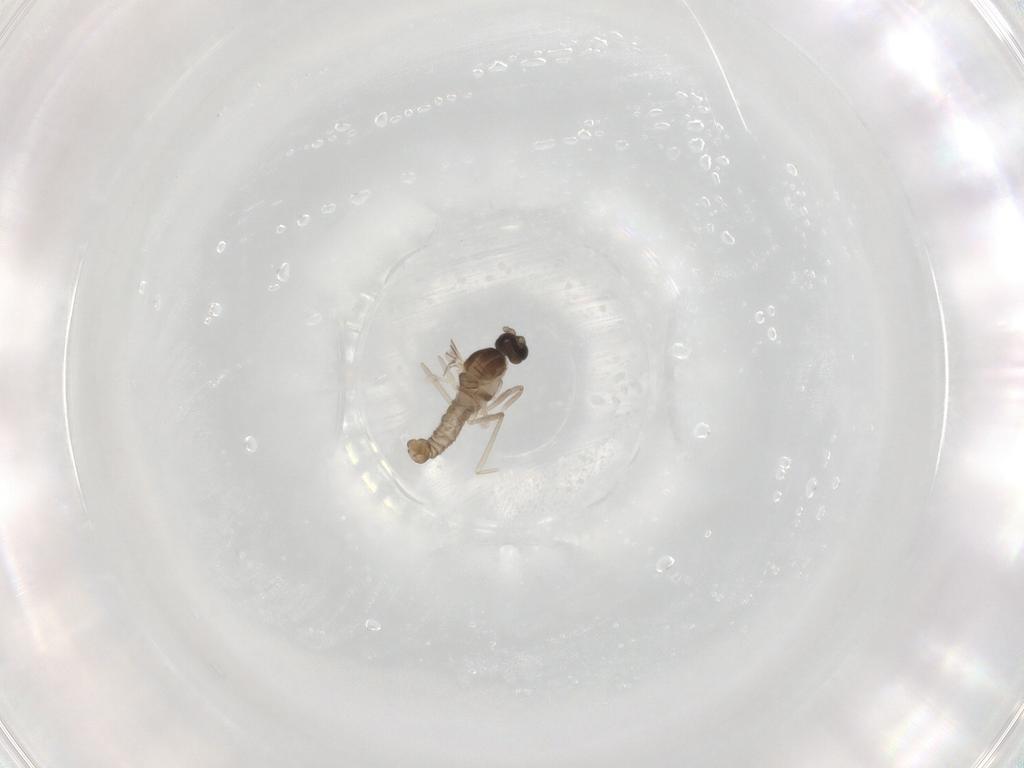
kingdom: Animalia
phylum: Arthropoda
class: Insecta
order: Diptera
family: Cecidomyiidae
